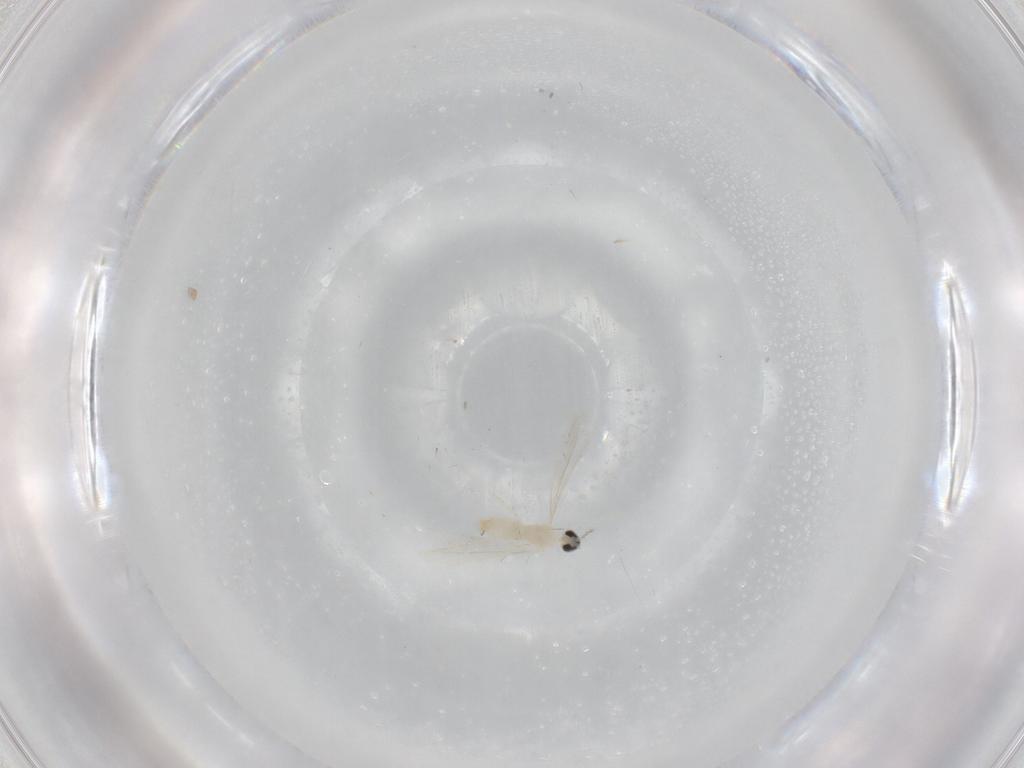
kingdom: Animalia
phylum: Arthropoda
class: Insecta
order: Diptera
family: Cecidomyiidae
